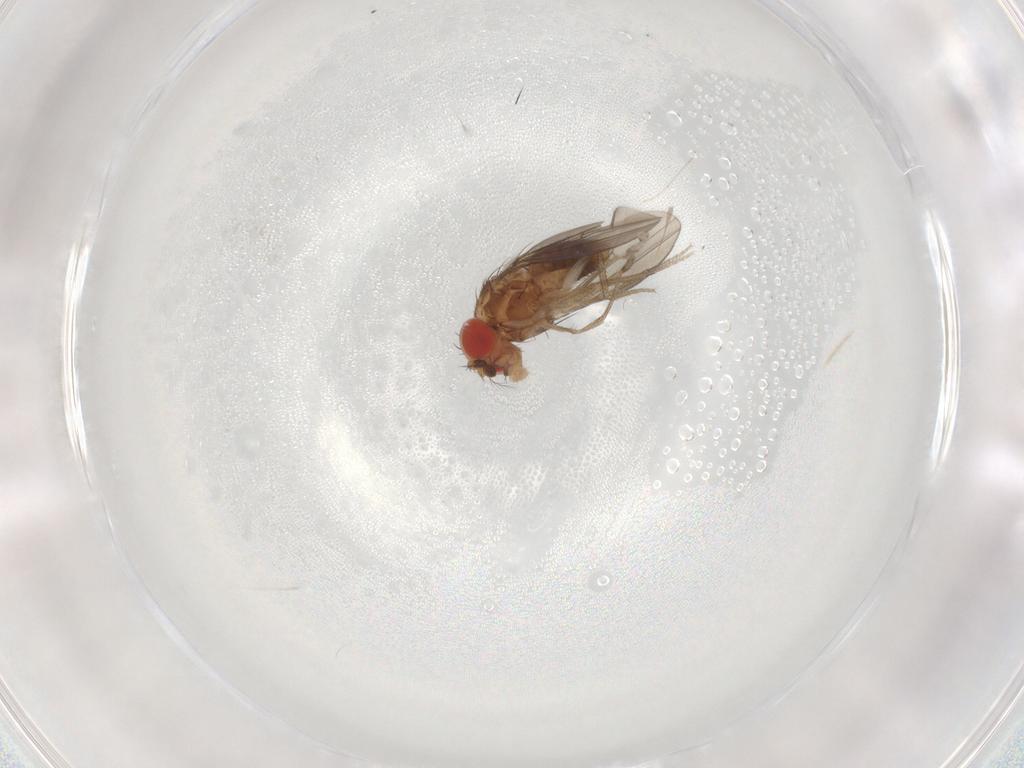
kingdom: Animalia
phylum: Arthropoda
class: Insecta
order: Diptera
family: Drosophilidae
